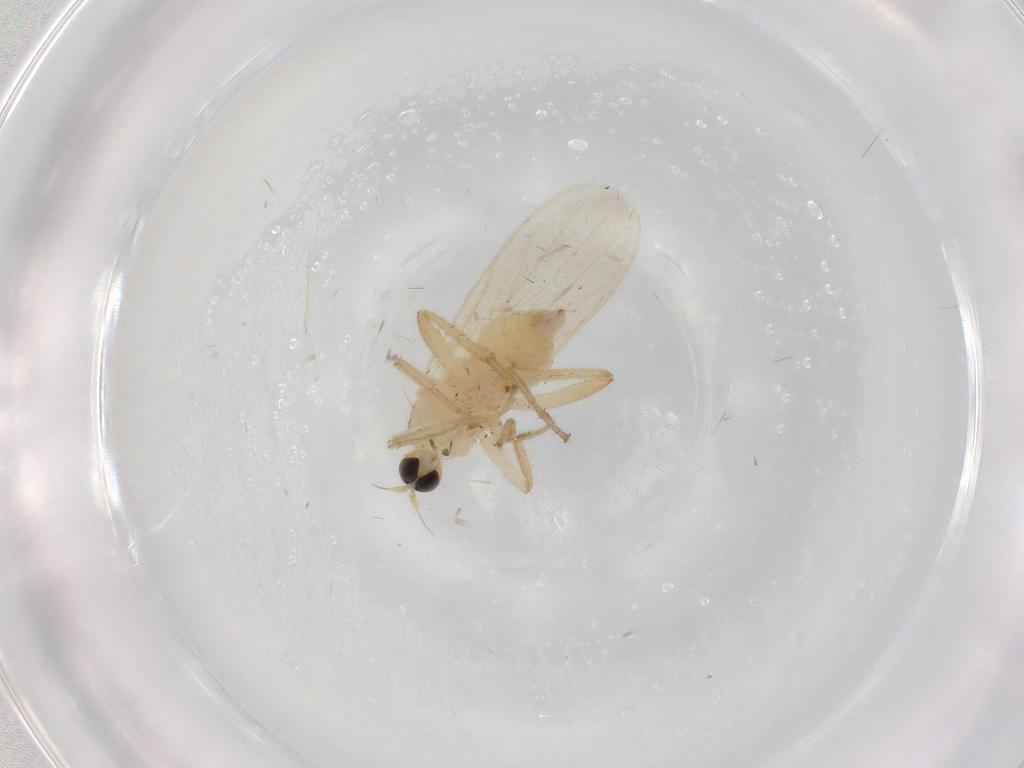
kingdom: Animalia
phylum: Arthropoda
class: Insecta
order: Diptera
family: Hybotidae
